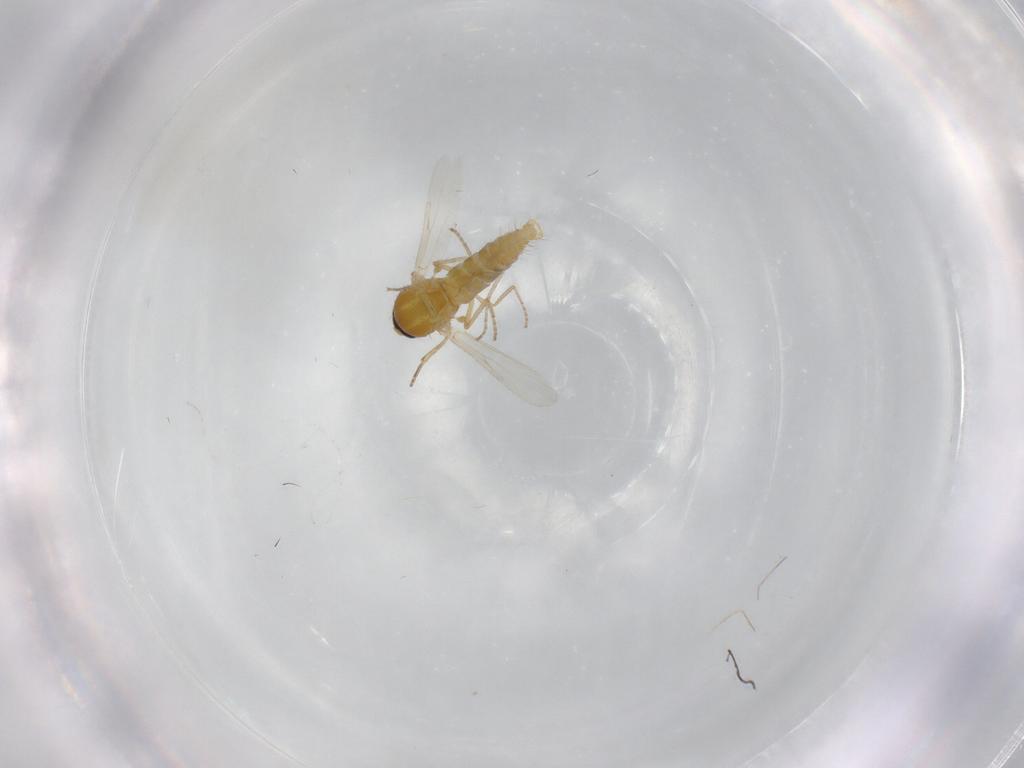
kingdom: Animalia
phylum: Arthropoda
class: Insecta
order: Diptera
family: Ceratopogonidae
